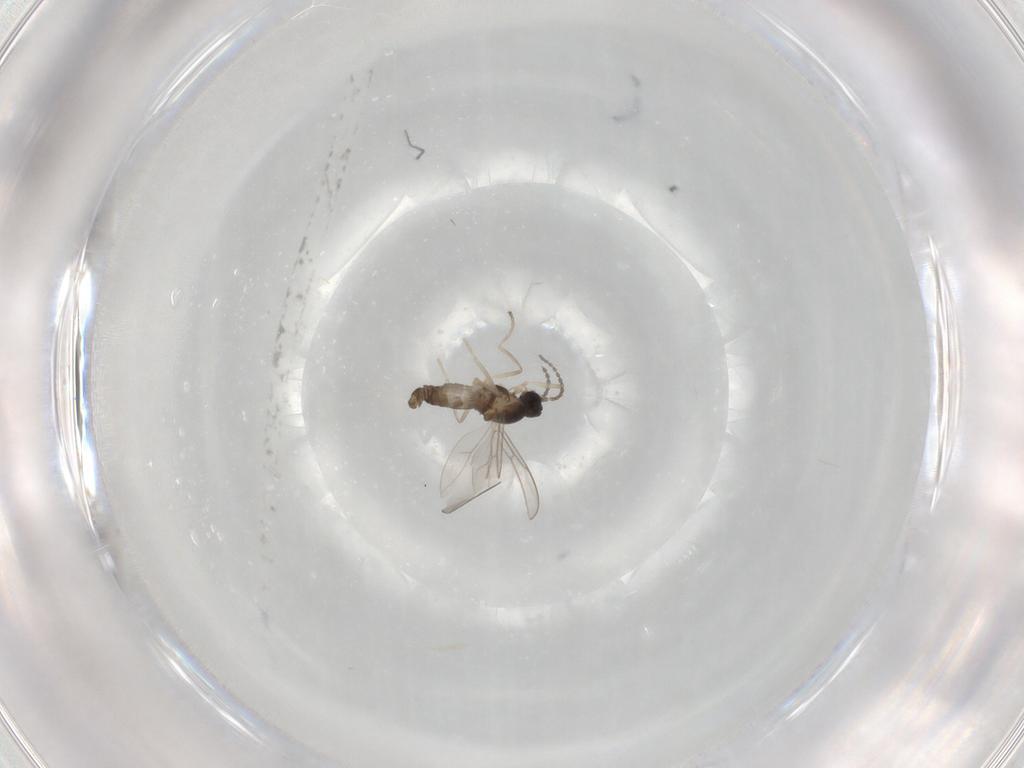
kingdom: Animalia
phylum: Arthropoda
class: Insecta
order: Diptera
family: Cecidomyiidae
